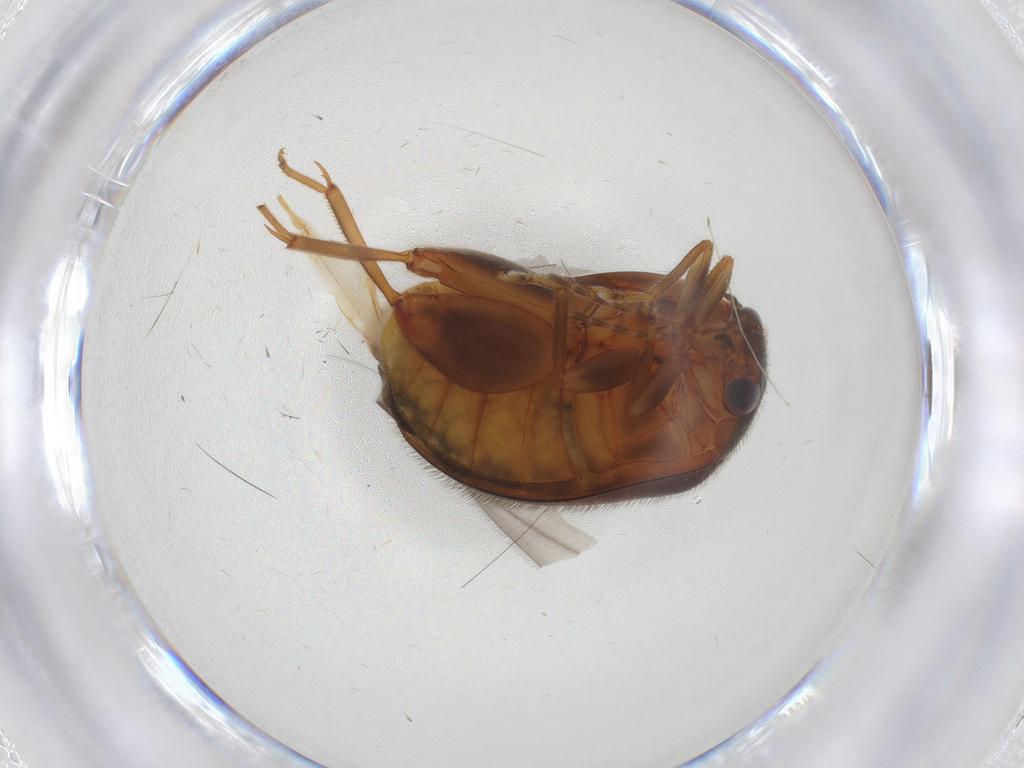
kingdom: Animalia
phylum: Arthropoda
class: Insecta
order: Coleoptera
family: Scirtidae
